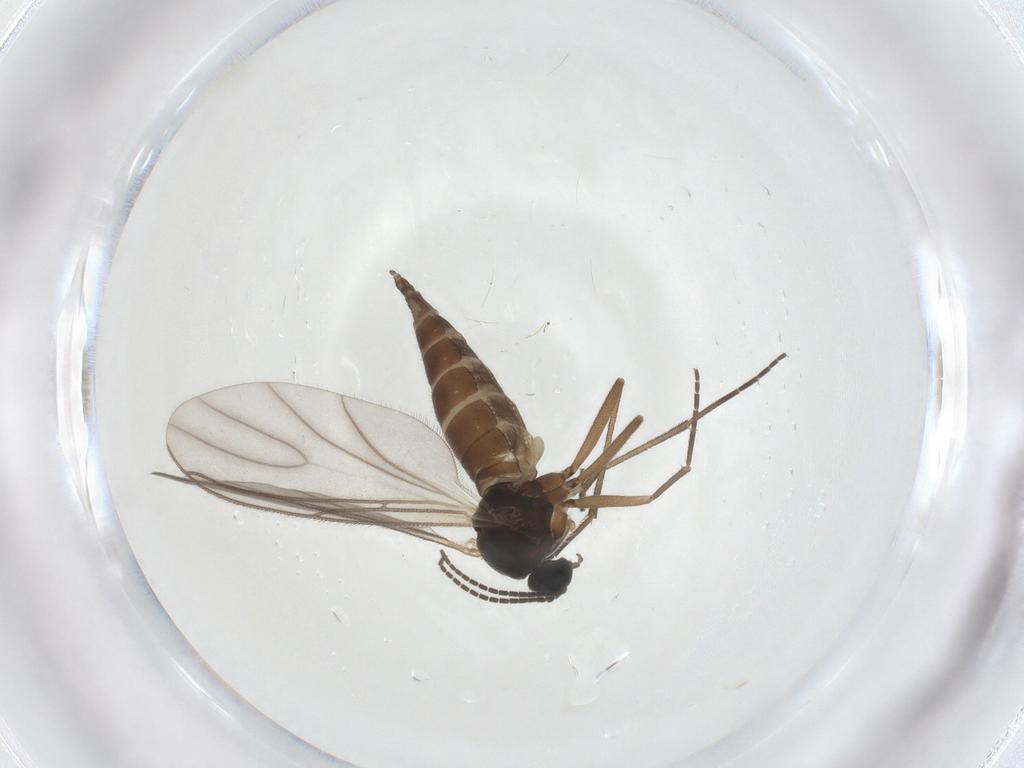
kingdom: Animalia
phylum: Arthropoda
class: Insecta
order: Diptera
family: Sciaridae
